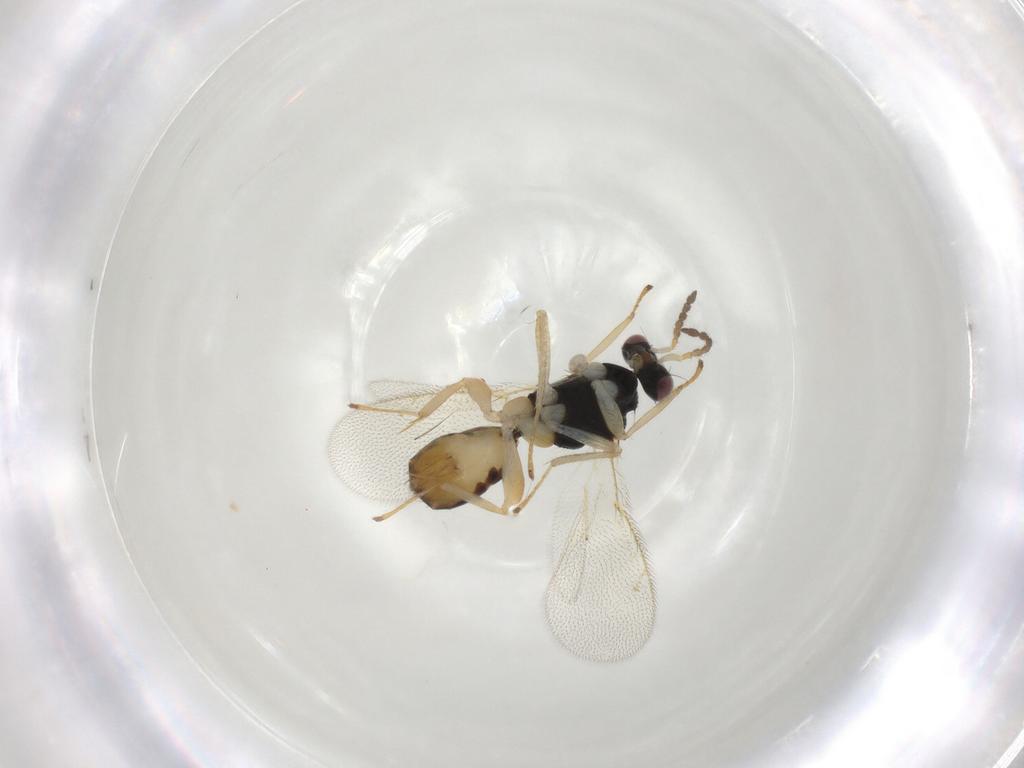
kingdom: Animalia
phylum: Arthropoda
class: Insecta
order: Hymenoptera
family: Eulophidae
